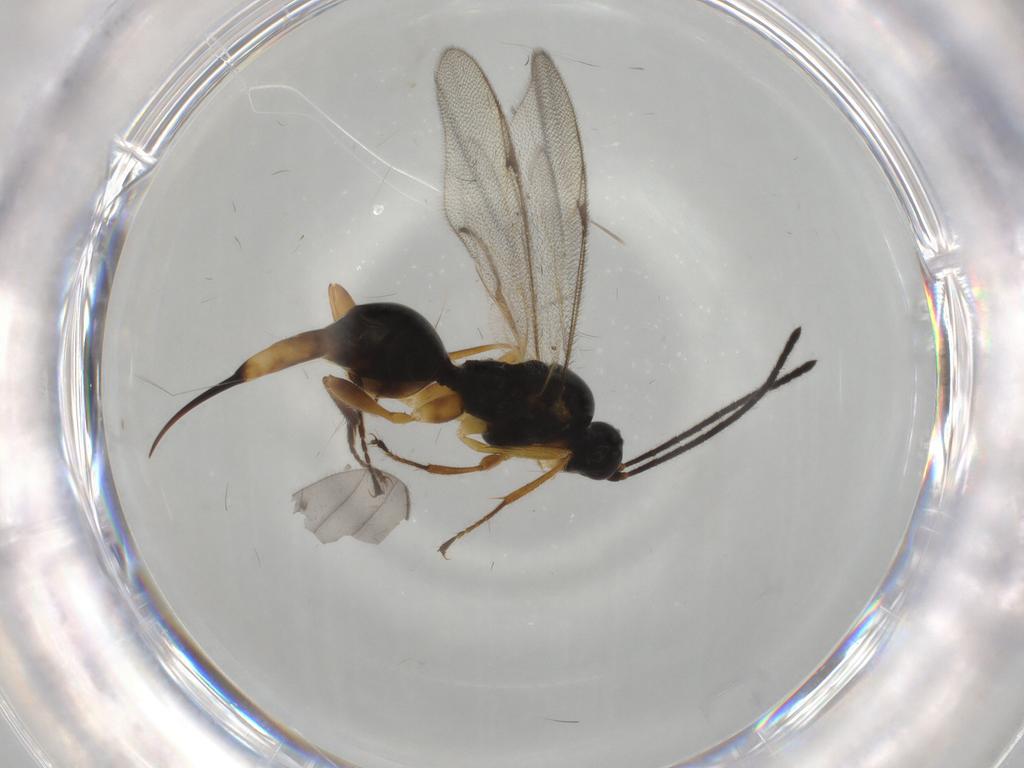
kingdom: Animalia
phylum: Arthropoda
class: Insecta
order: Hymenoptera
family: Proctotrupidae
